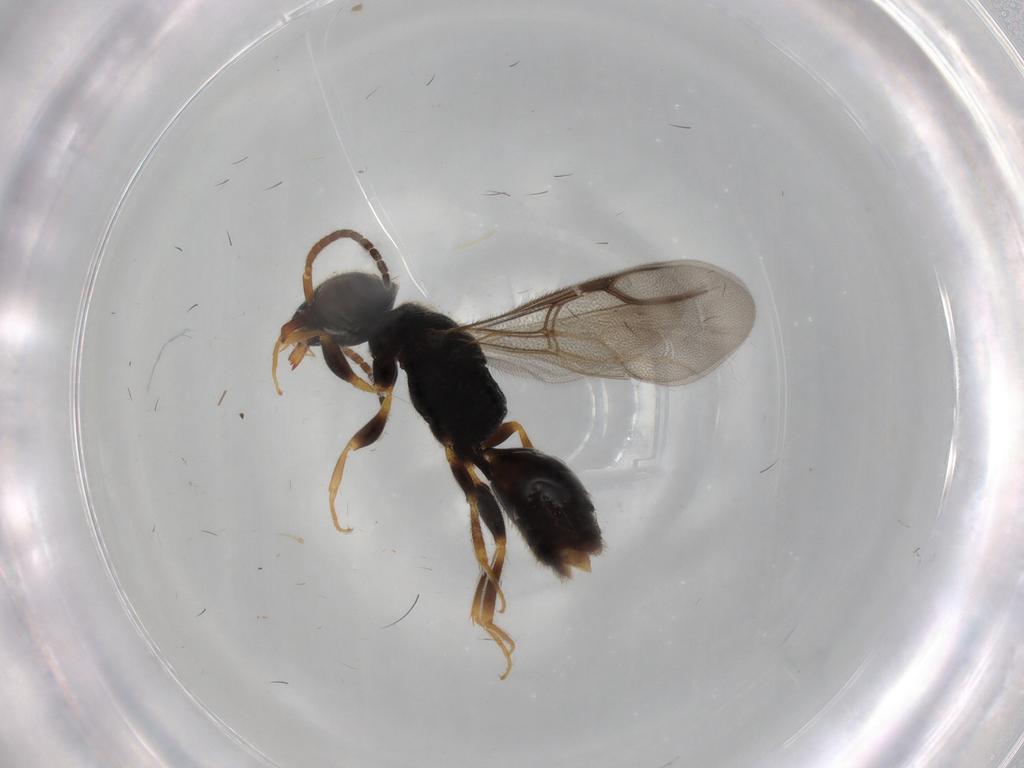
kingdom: Animalia
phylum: Arthropoda
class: Insecta
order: Hymenoptera
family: Bethylidae
